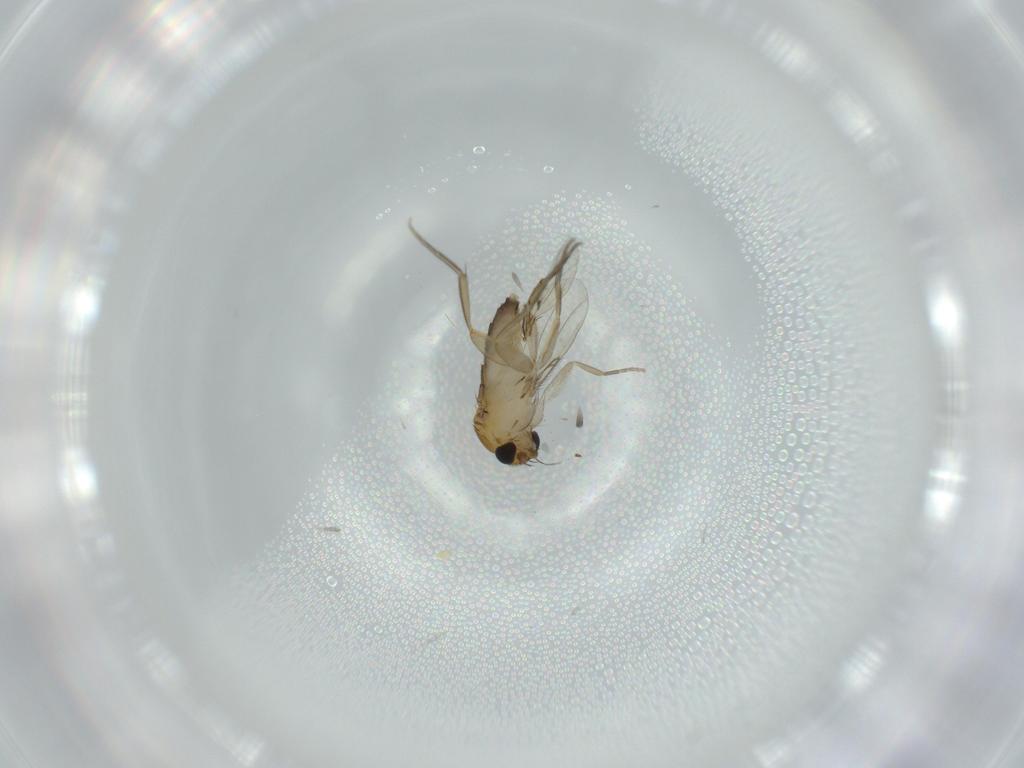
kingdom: Animalia
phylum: Arthropoda
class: Insecta
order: Diptera
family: Phoridae
